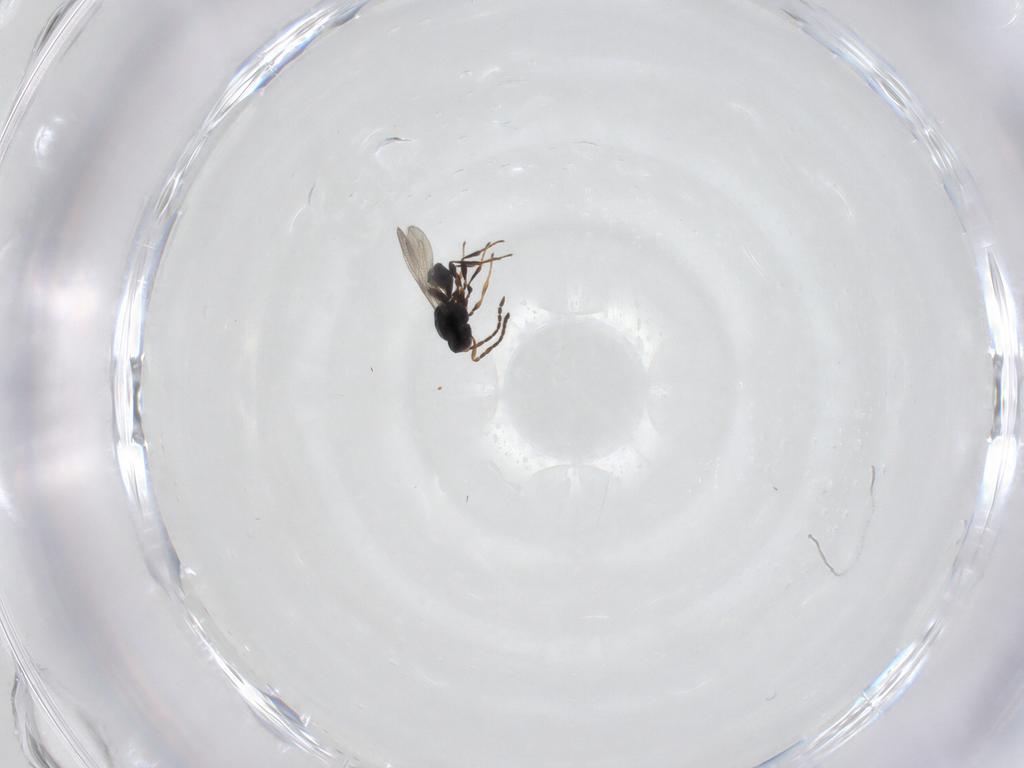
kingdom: Animalia
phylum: Arthropoda
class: Insecta
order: Hymenoptera
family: Platygastridae
